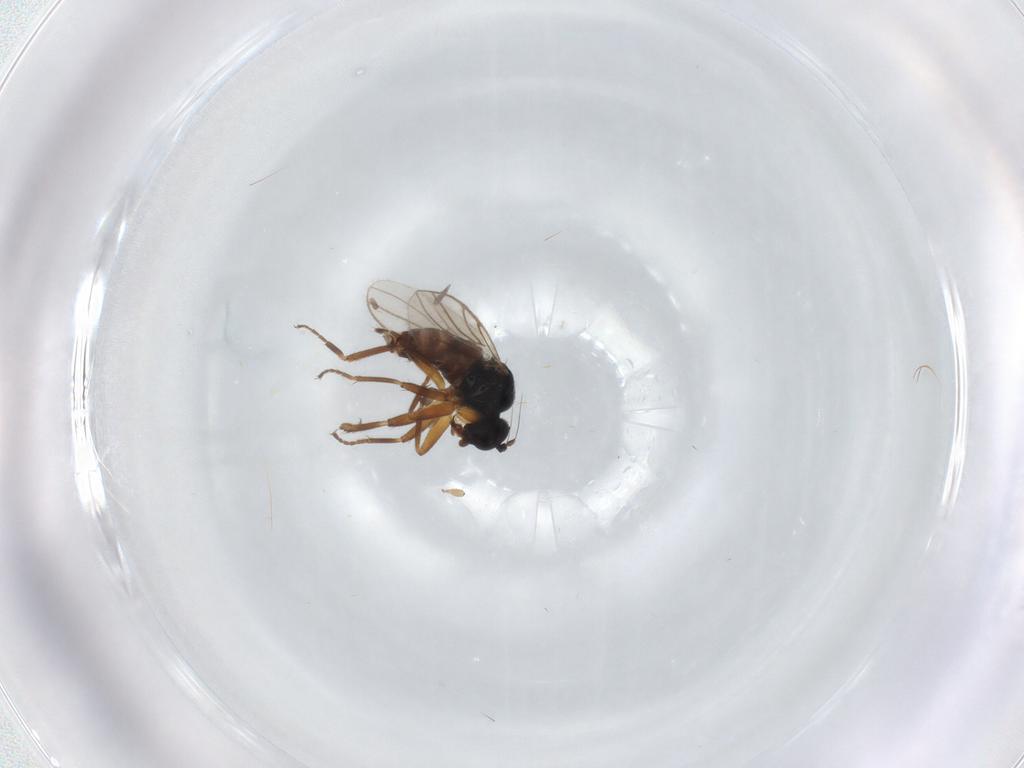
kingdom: Animalia
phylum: Arthropoda
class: Insecta
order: Diptera
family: Hybotidae
